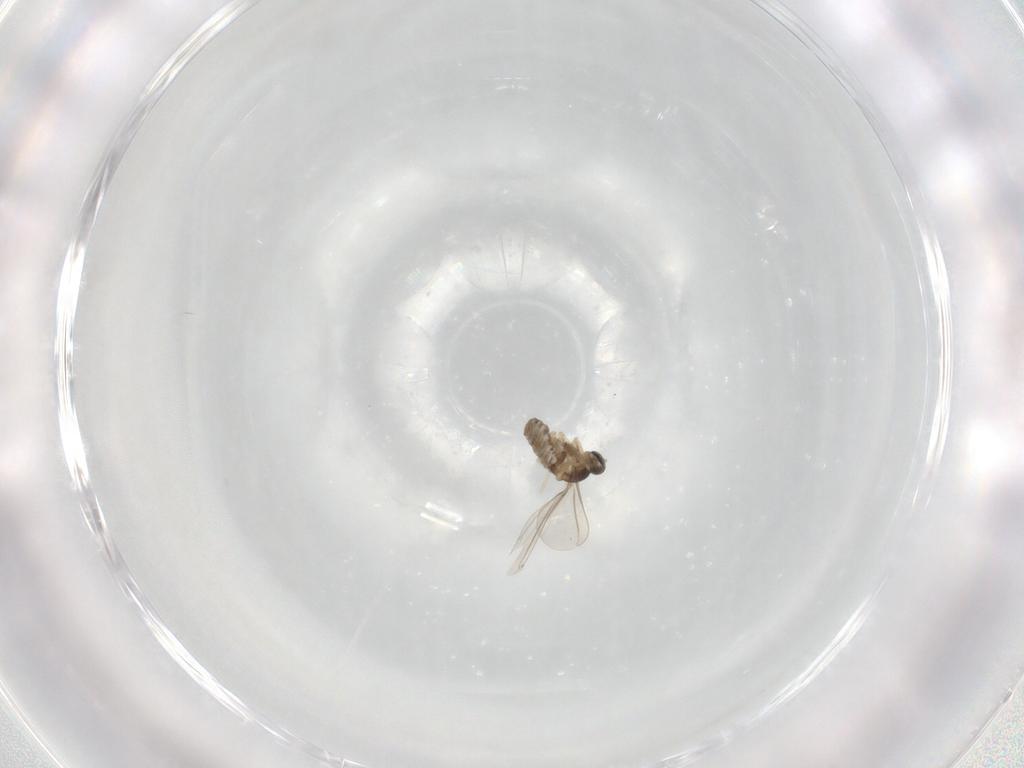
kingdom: Animalia
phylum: Arthropoda
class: Insecta
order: Diptera
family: Cecidomyiidae
